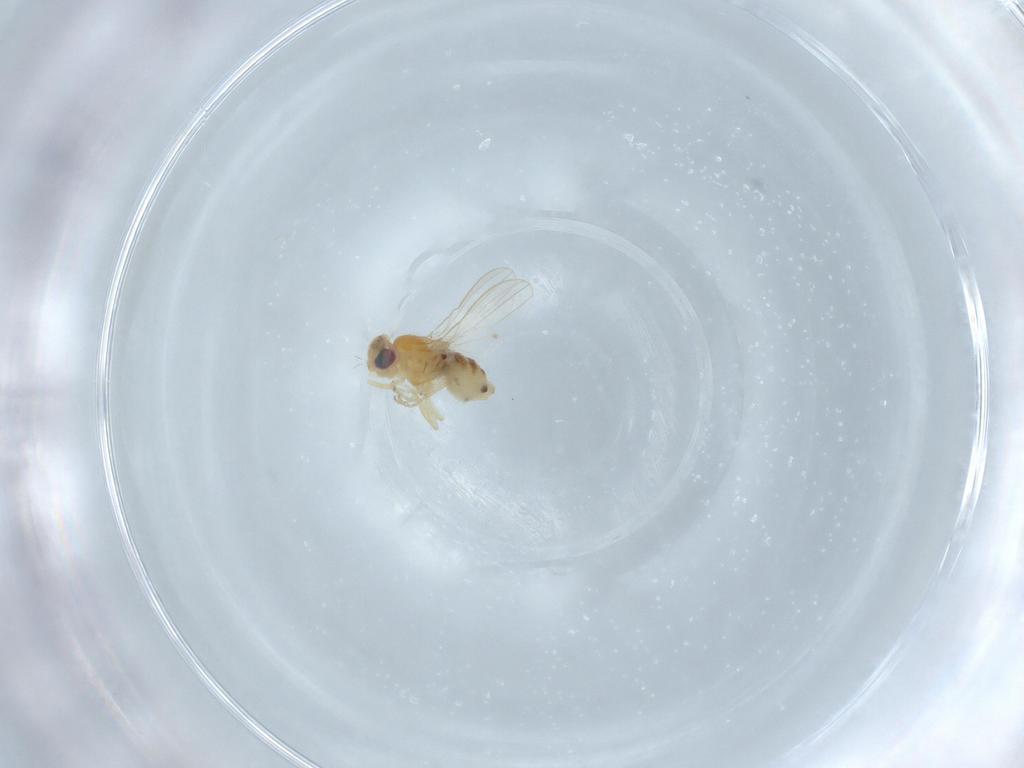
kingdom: Animalia
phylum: Arthropoda
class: Insecta
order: Diptera
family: Chyromyidae
